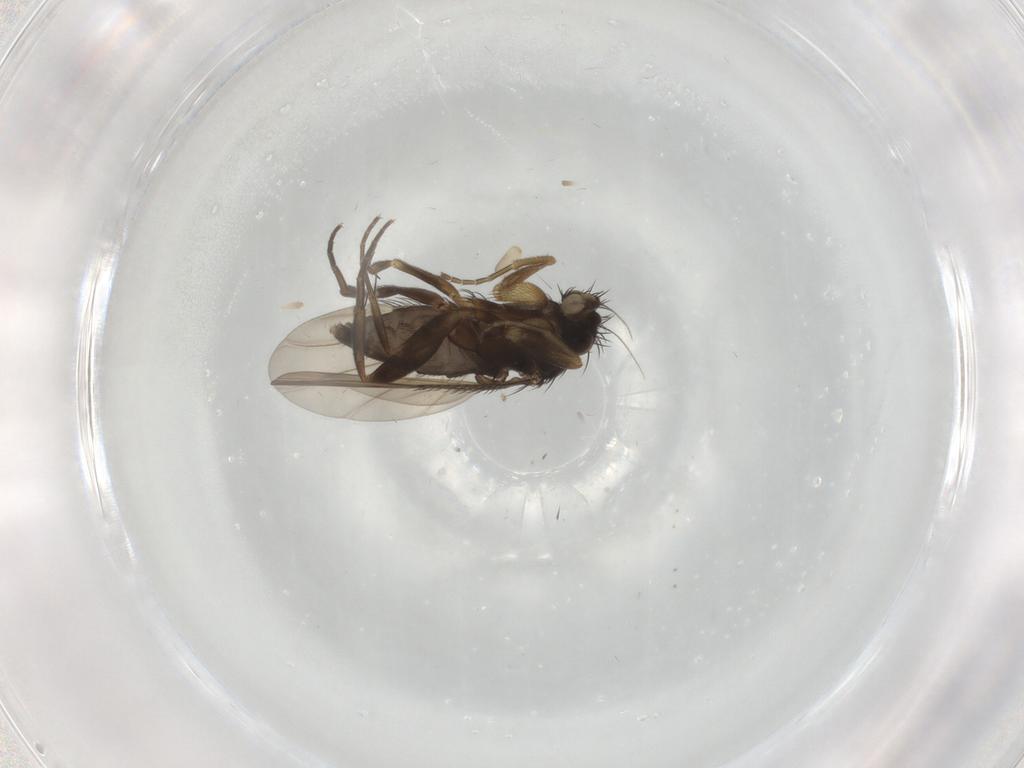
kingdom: Animalia
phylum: Arthropoda
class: Insecta
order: Diptera
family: Phoridae
